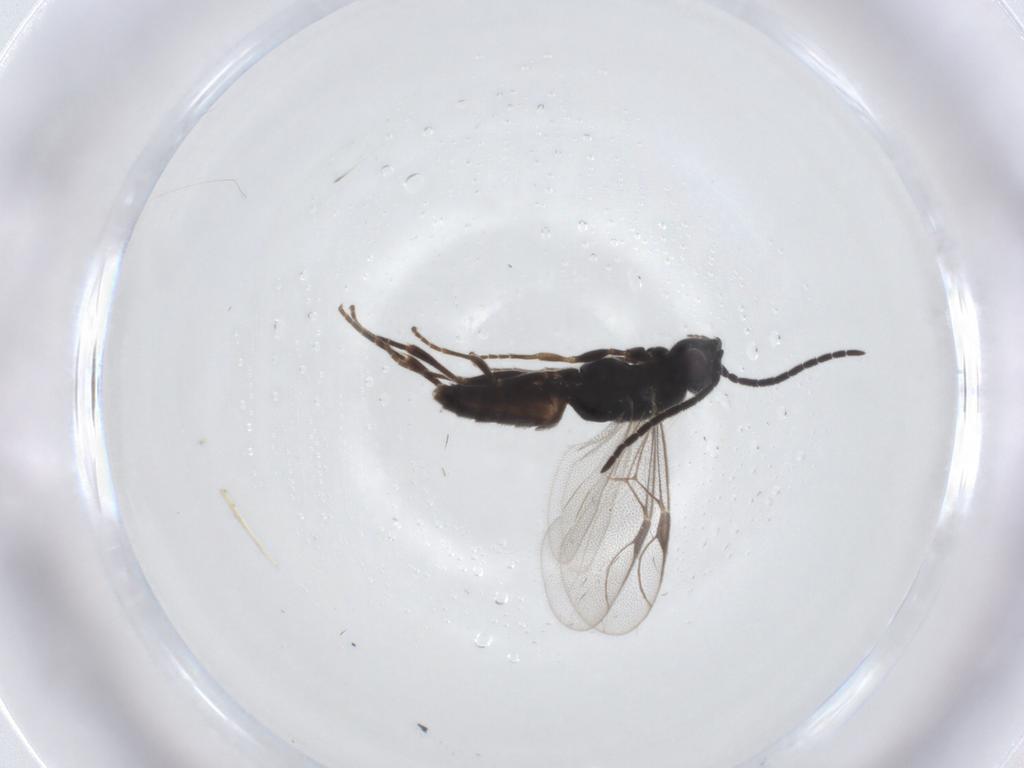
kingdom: Animalia
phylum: Arthropoda
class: Insecta
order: Hymenoptera
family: Dryinidae
